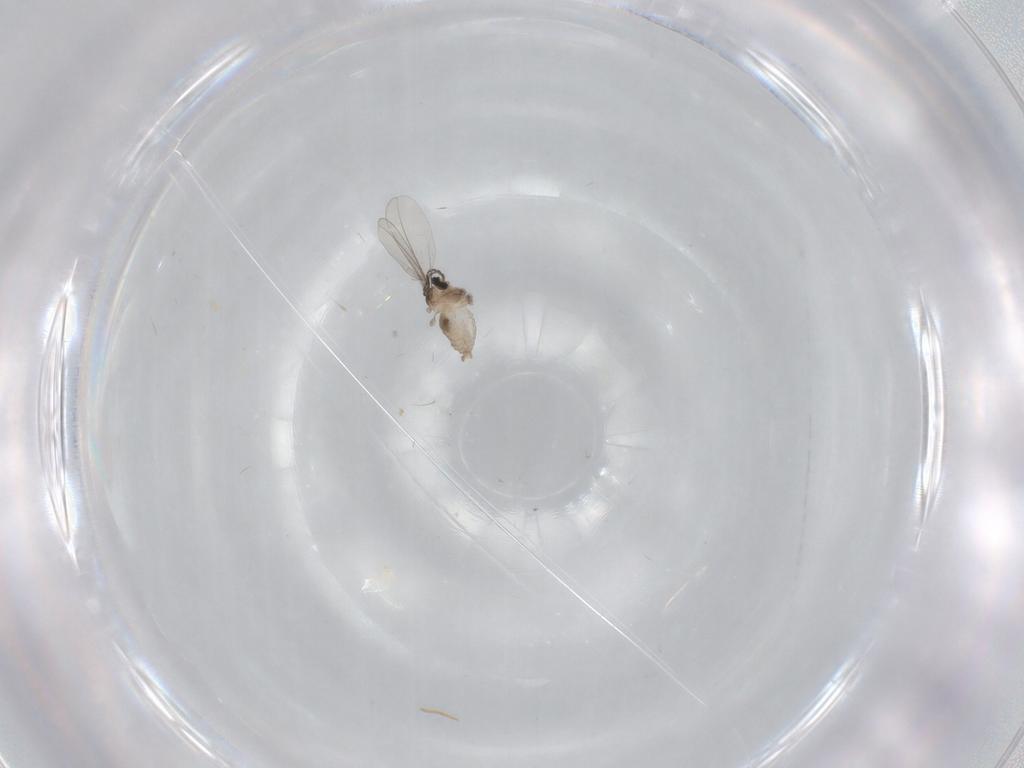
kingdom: Animalia
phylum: Arthropoda
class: Insecta
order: Diptera
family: Cecidomyiidae
